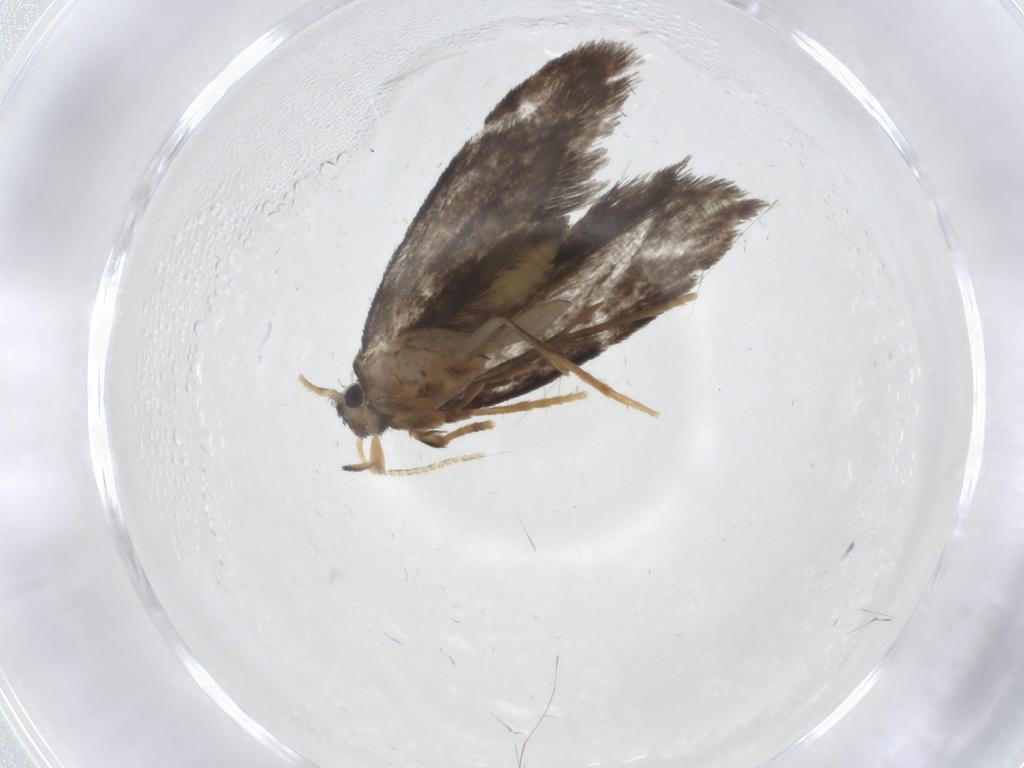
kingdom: Animalia
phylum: Arthropoda
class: Insecta
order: Lepidoptera
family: Psychidae
